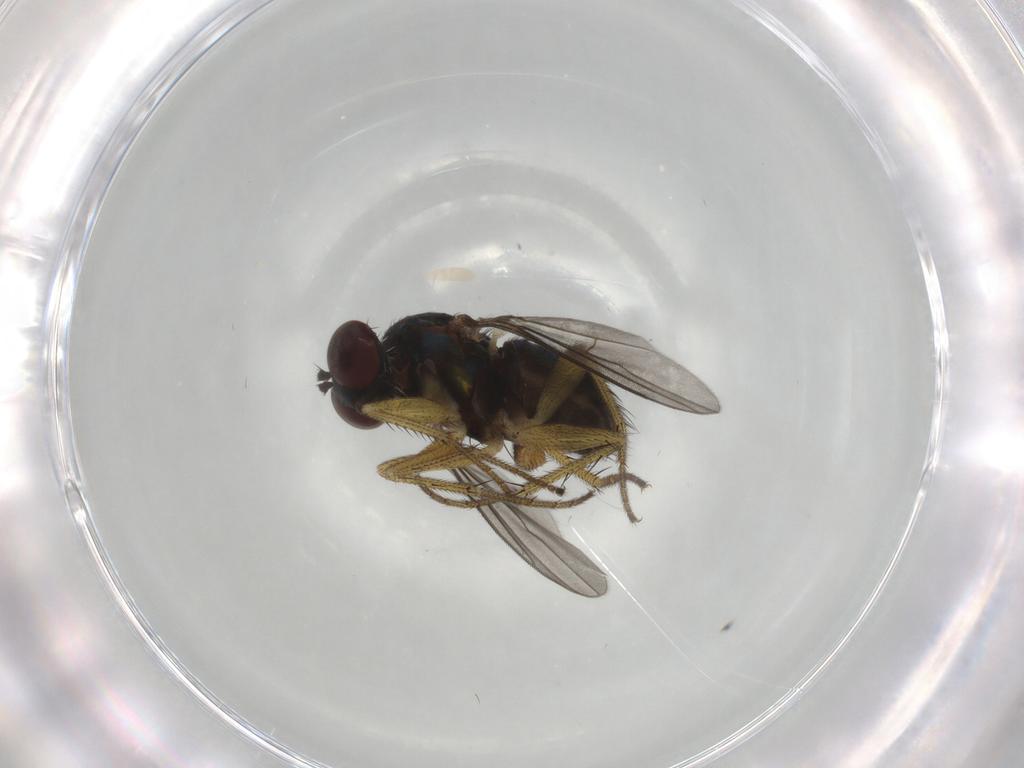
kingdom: Animalia
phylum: Arthropoda
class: Insecta
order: Diptera
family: Dolichopodidae
